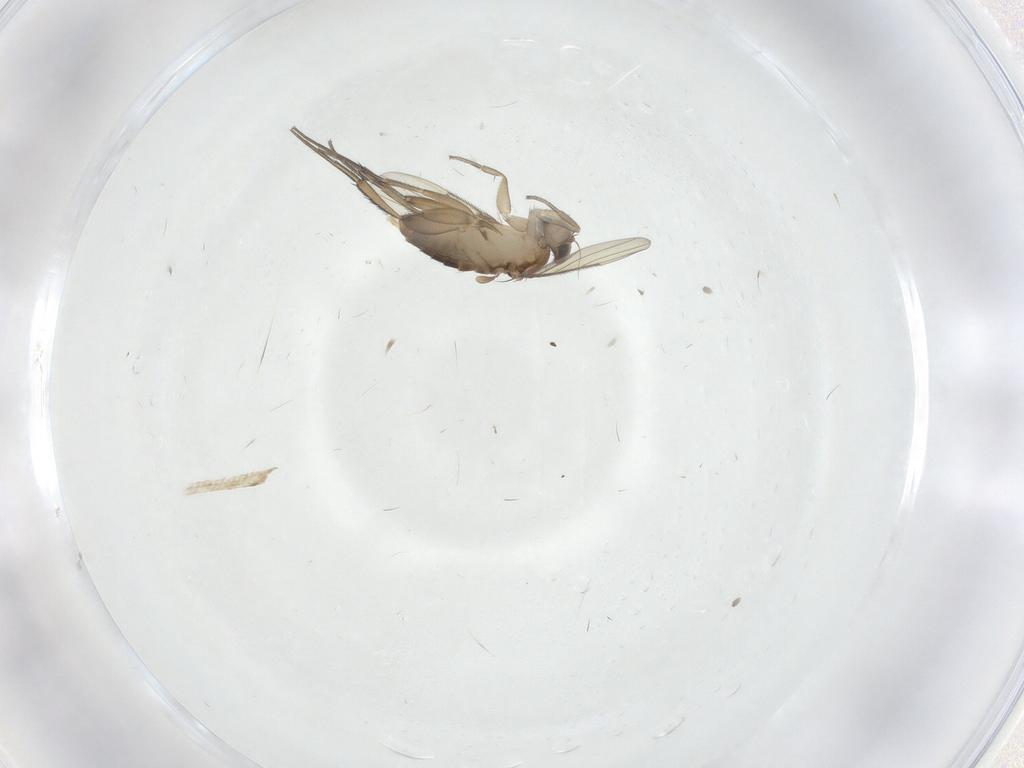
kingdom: Animalia
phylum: Arthropoda
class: Insecta
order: Diptera
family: Phoridae
